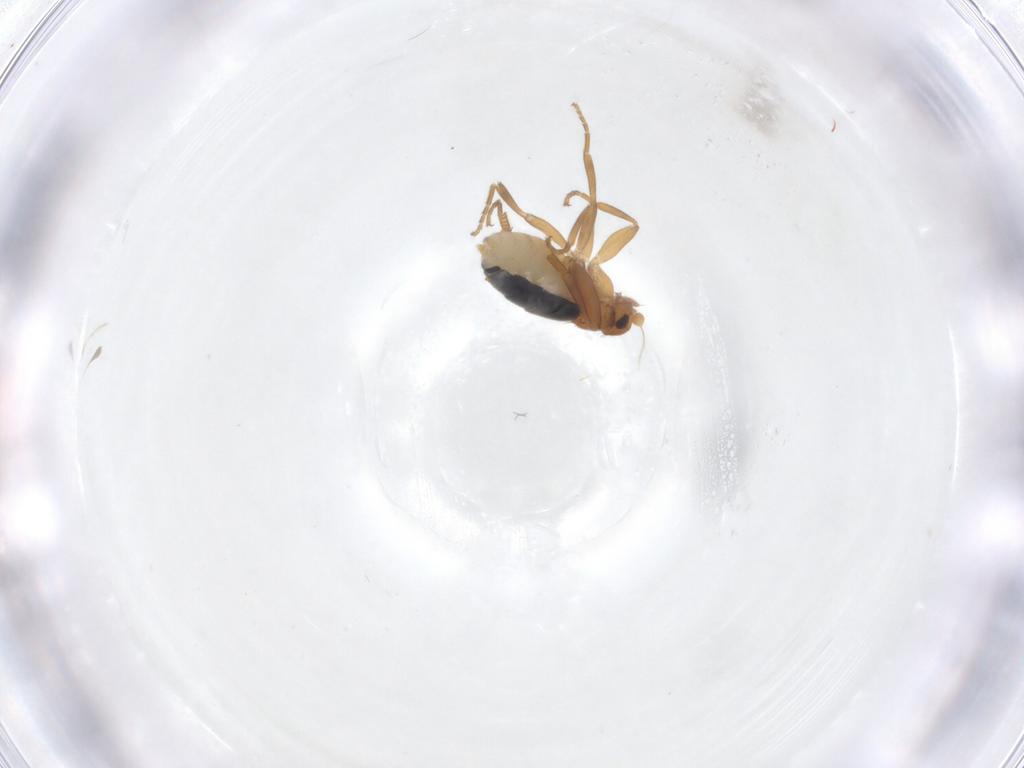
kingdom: Animalia
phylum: Arthropoda
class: Insecta
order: Diptera
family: Phoridae
